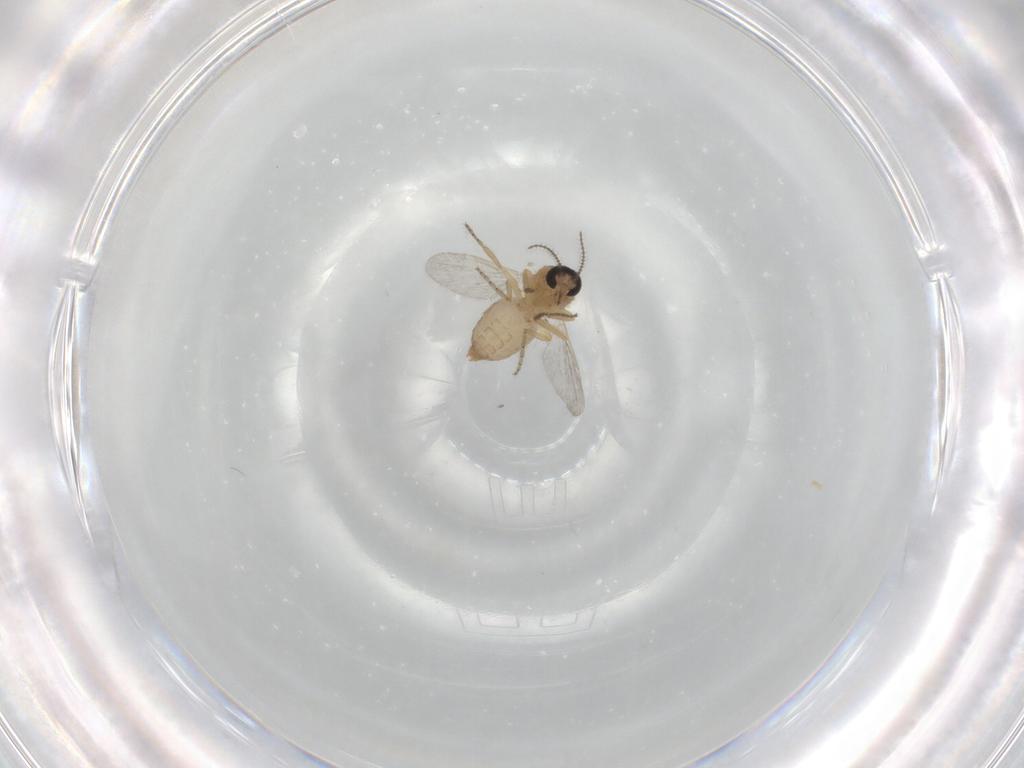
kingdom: Animalia
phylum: Arthropoda
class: Insecta
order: Diptera
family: Ceratopogonidae
